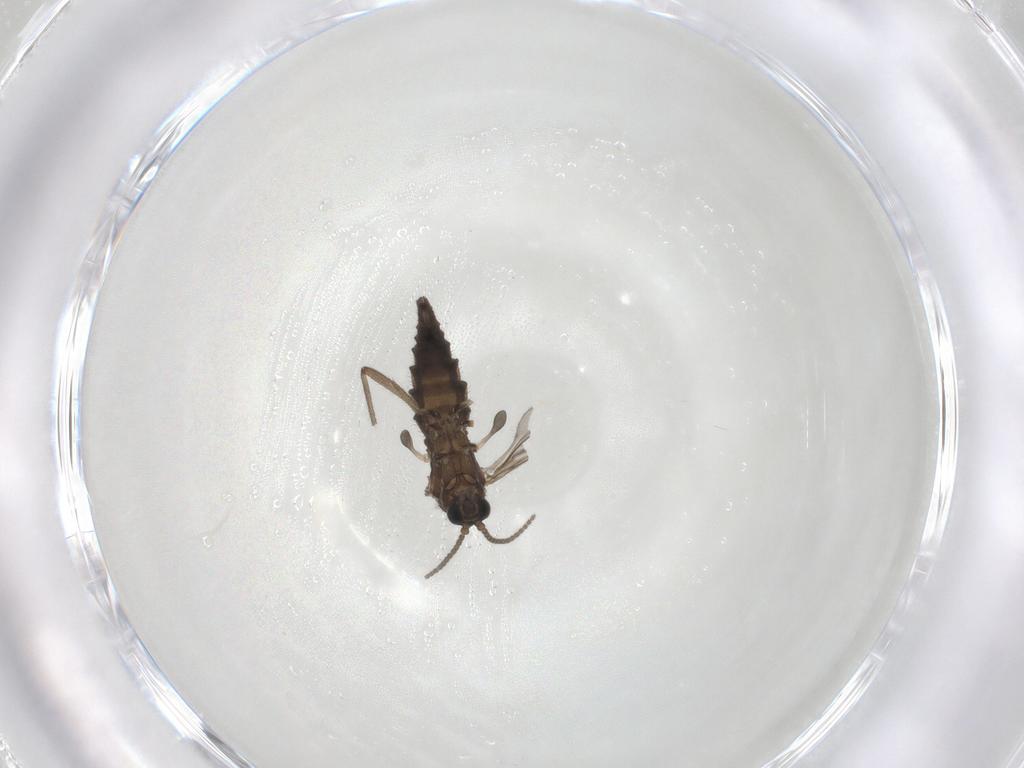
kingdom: Animalia
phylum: Arthropoda
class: Insecta
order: Diptera
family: Sciaridae
